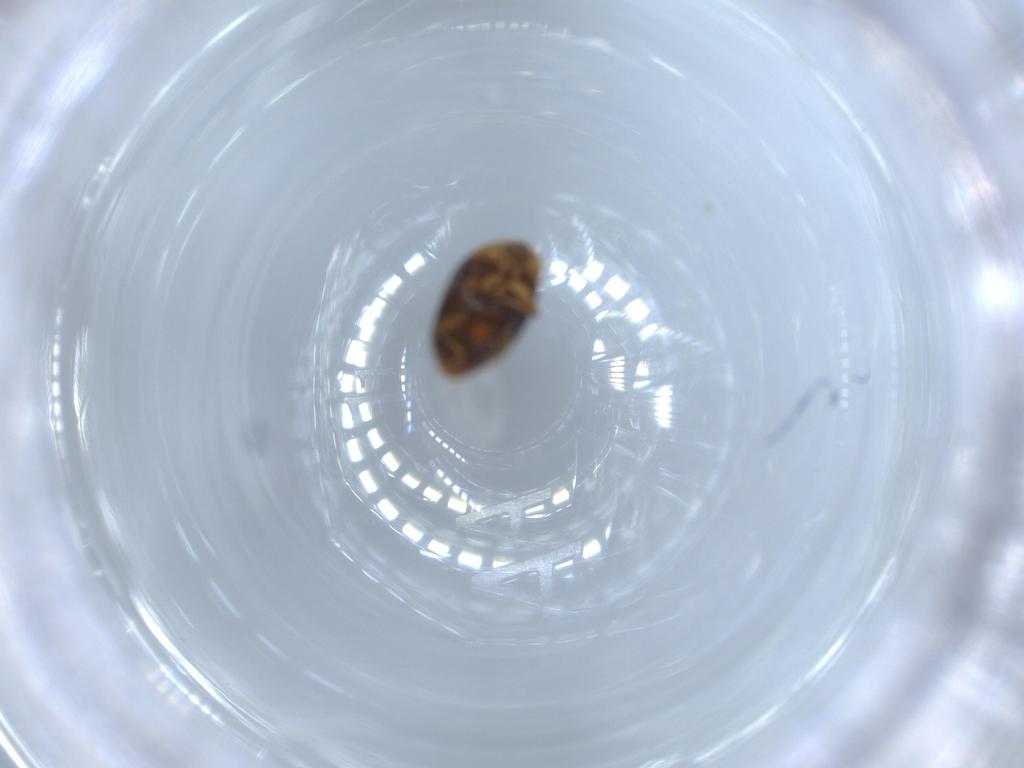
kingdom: Animalia
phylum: Arthropoda
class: Insecta
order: Coleoptera
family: Corylophidae
